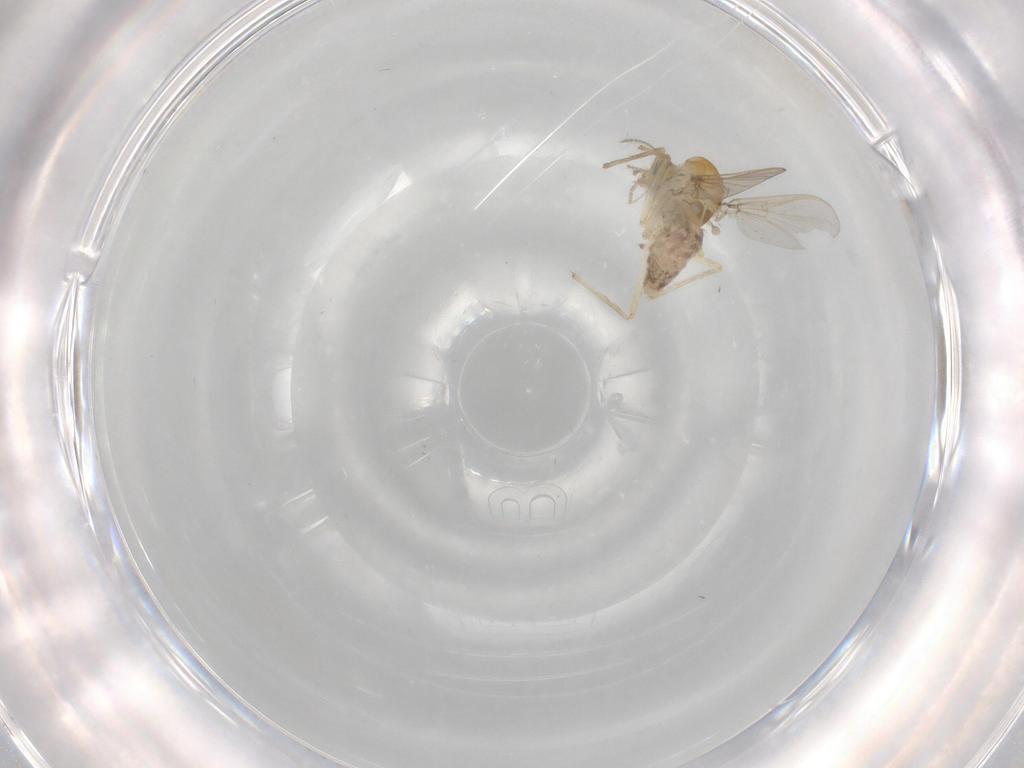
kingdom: Animalia
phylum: Arthropoda
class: Insecta
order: Diptera
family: Chironomidae
